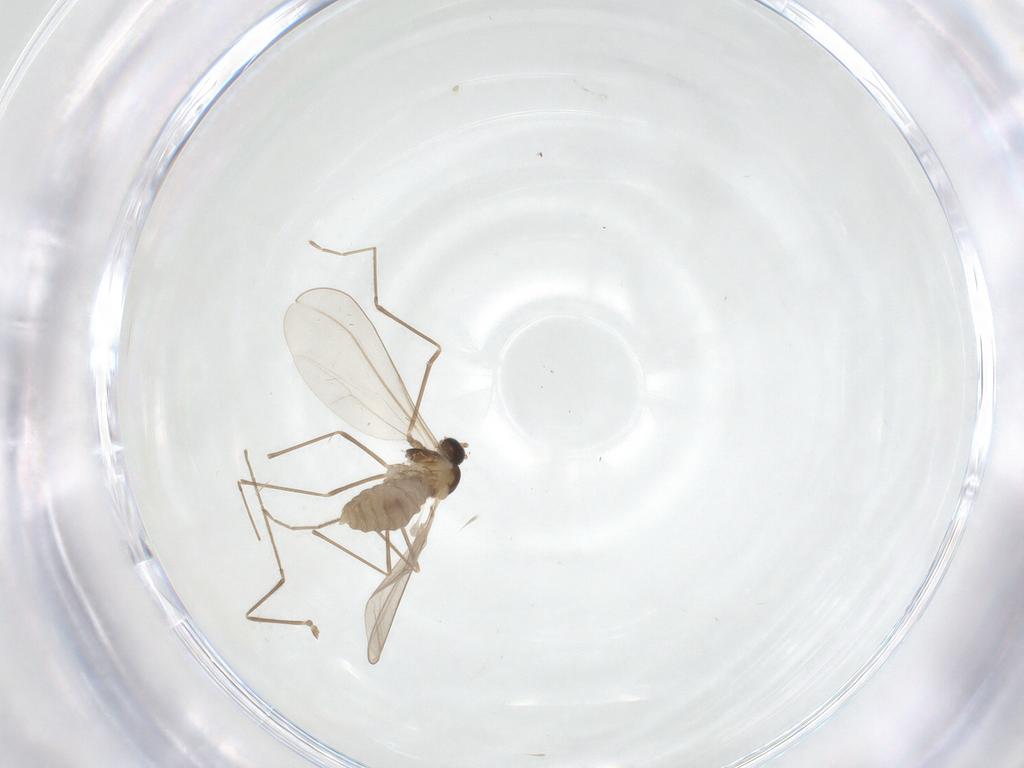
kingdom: Animalia
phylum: Arthropoda
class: Insecta
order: Diptera
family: Cecidomyiidae
